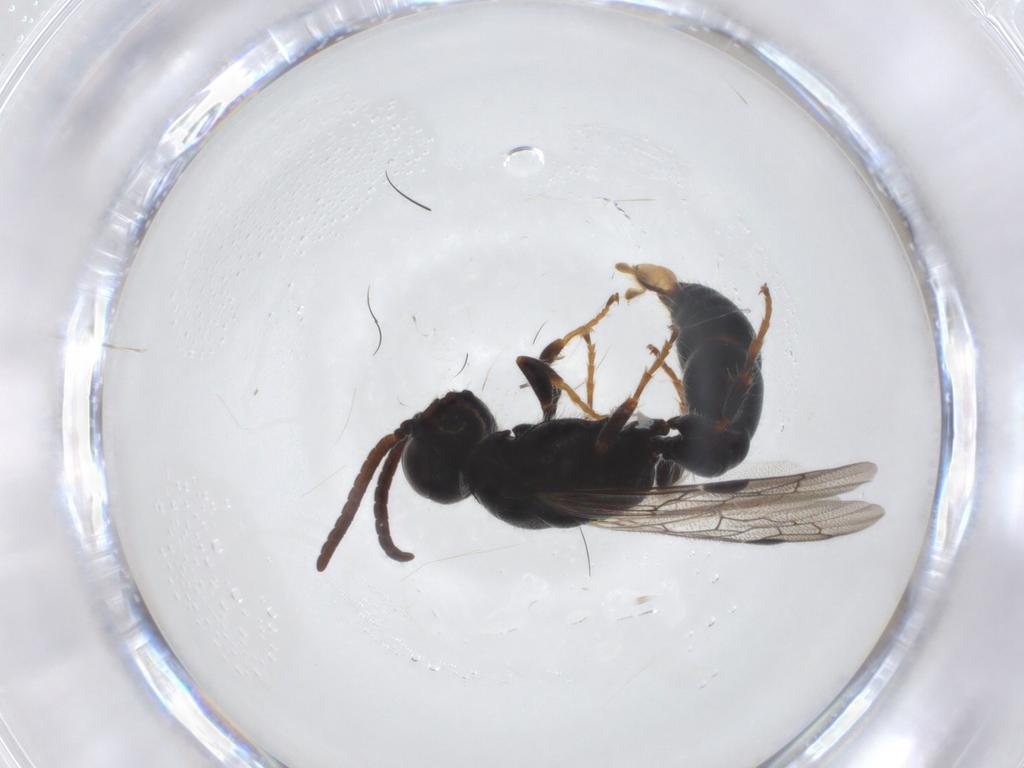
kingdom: Animalia
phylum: Arthropoda
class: Insecta
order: Hymenoptera
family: Tiphiidae
